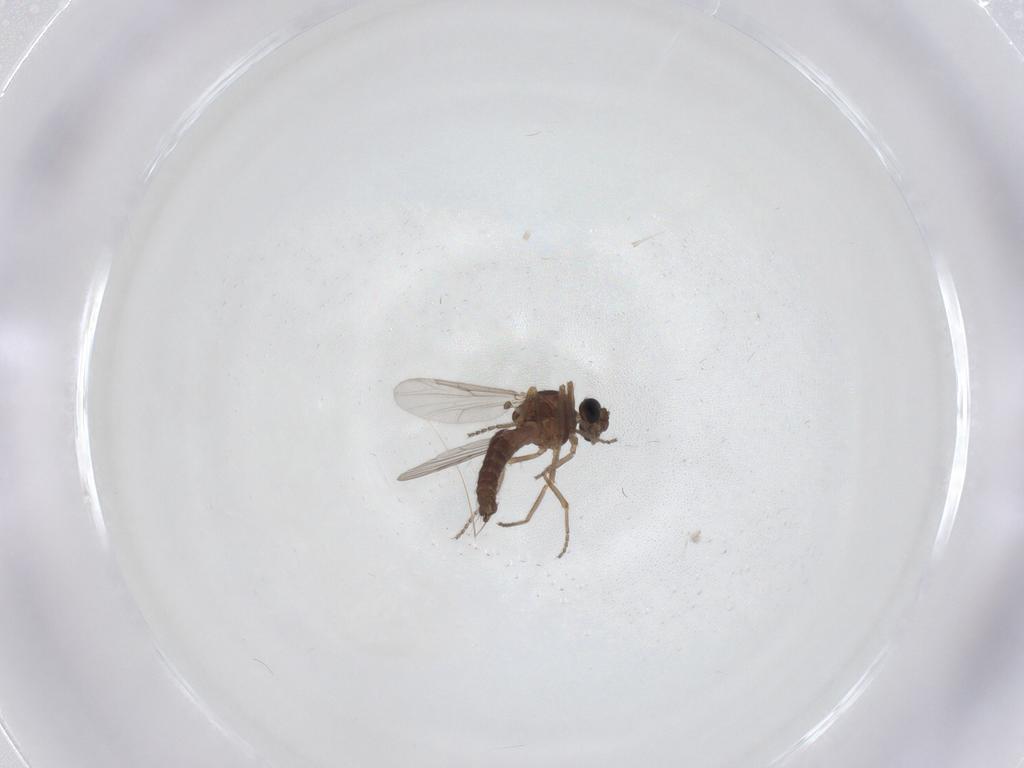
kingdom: Animalia
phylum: Arthropoda
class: Insecta
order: Diptera
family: Ceratopogonidae
